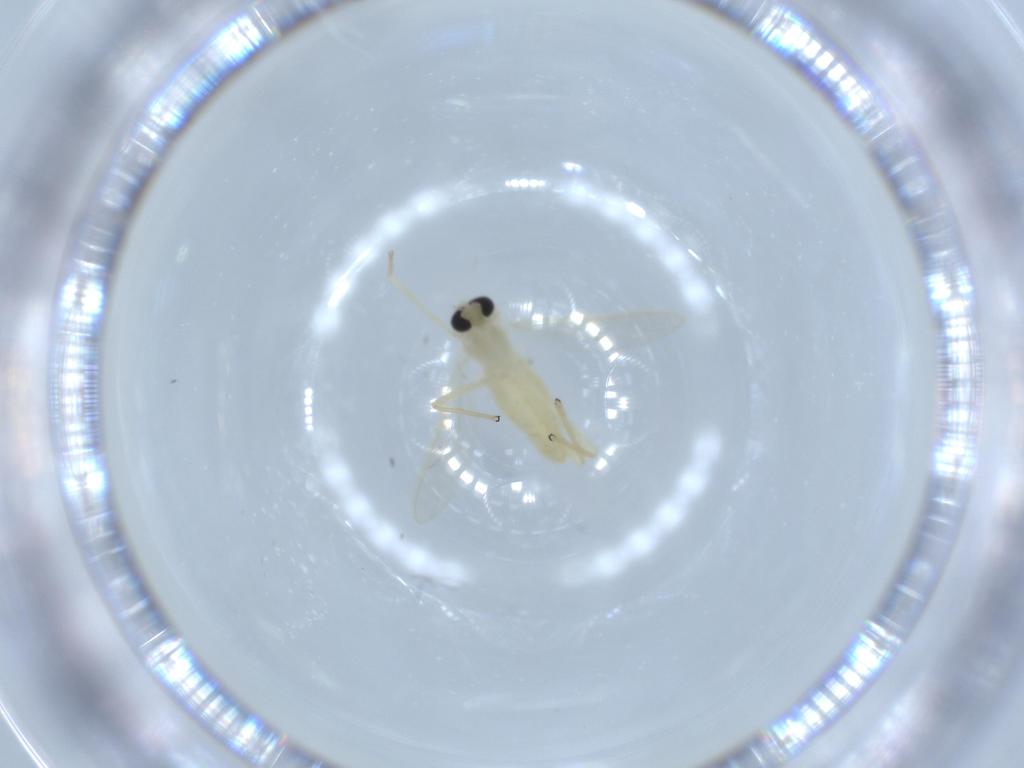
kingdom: Animalia
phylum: Arthropoda
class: Insecta
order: Diptera
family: Chironomidae
